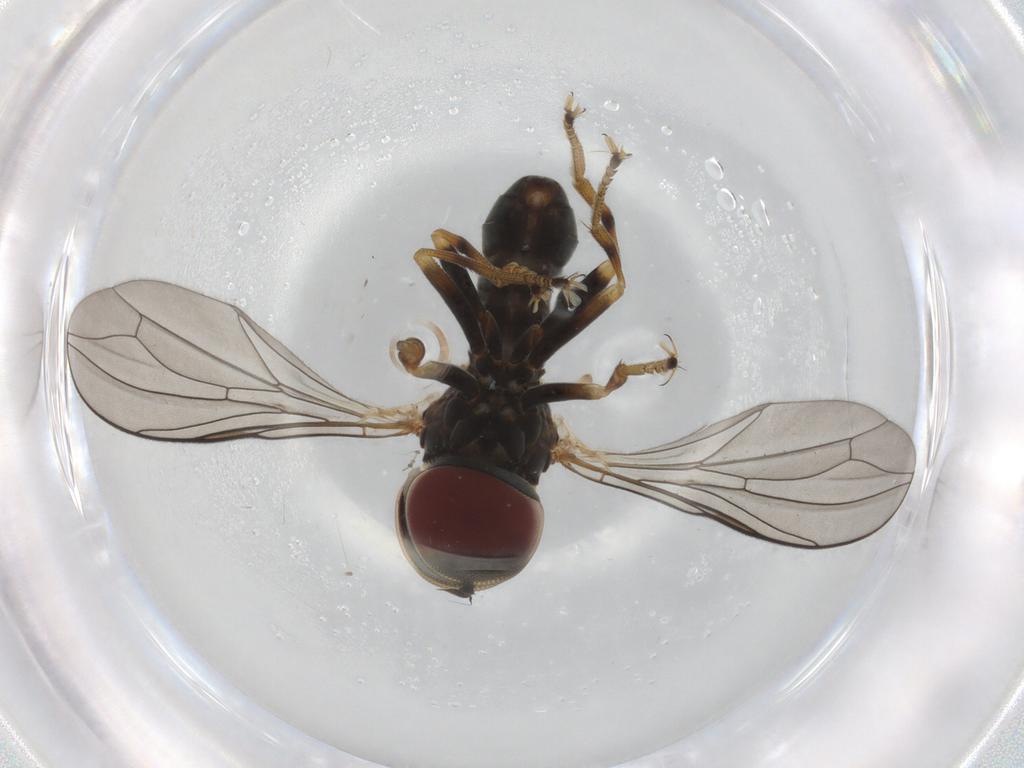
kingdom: Animalia
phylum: Arthropoda
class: Insecta
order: Diptera
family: Pipunculidae
